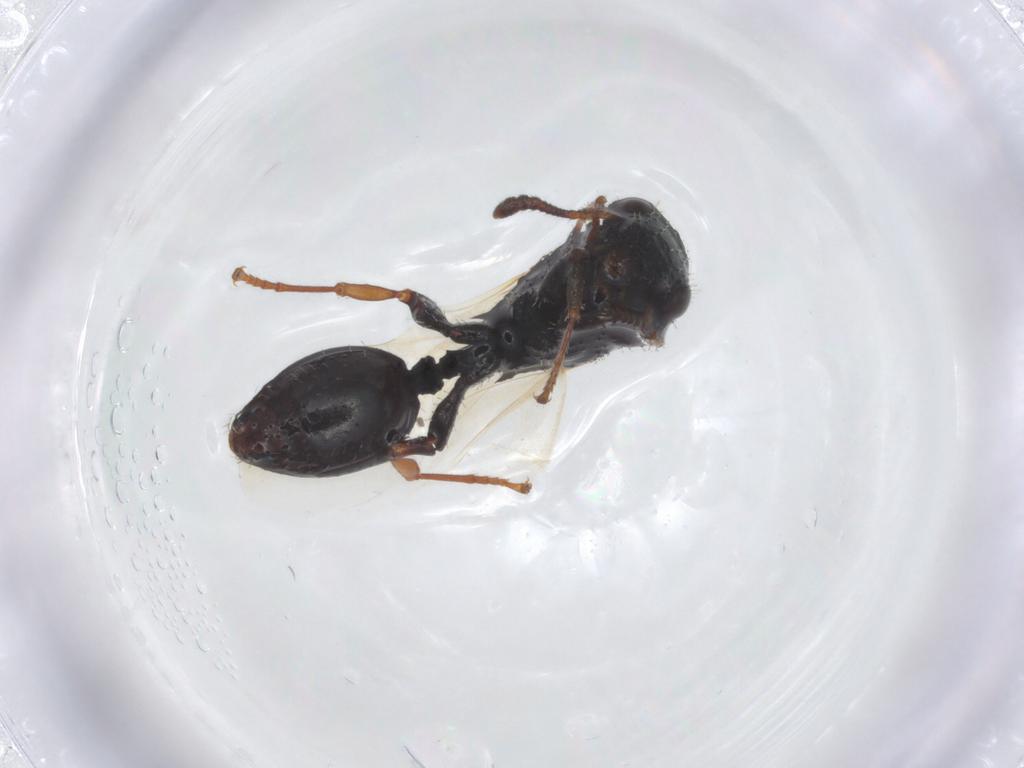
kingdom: Animalia
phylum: Arthropoda
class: Insecta
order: Hymenoptera
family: Formicidae
